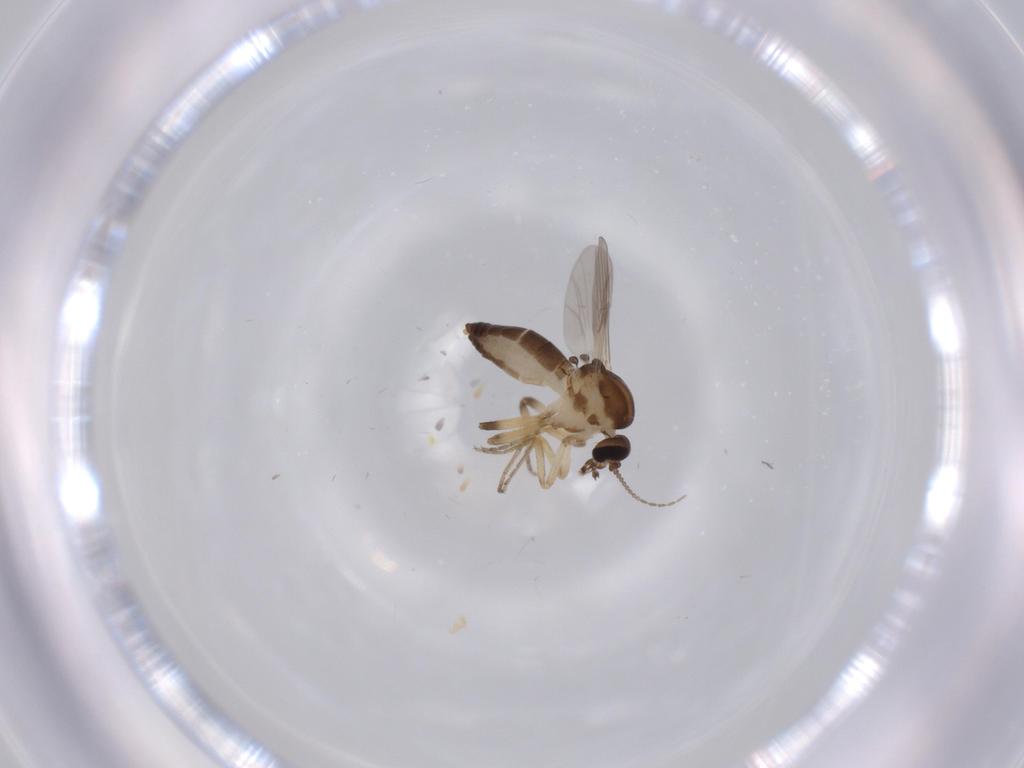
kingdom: Animalia
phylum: Arthropoda
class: Insecta
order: Diptera
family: Ceratopogonidae
